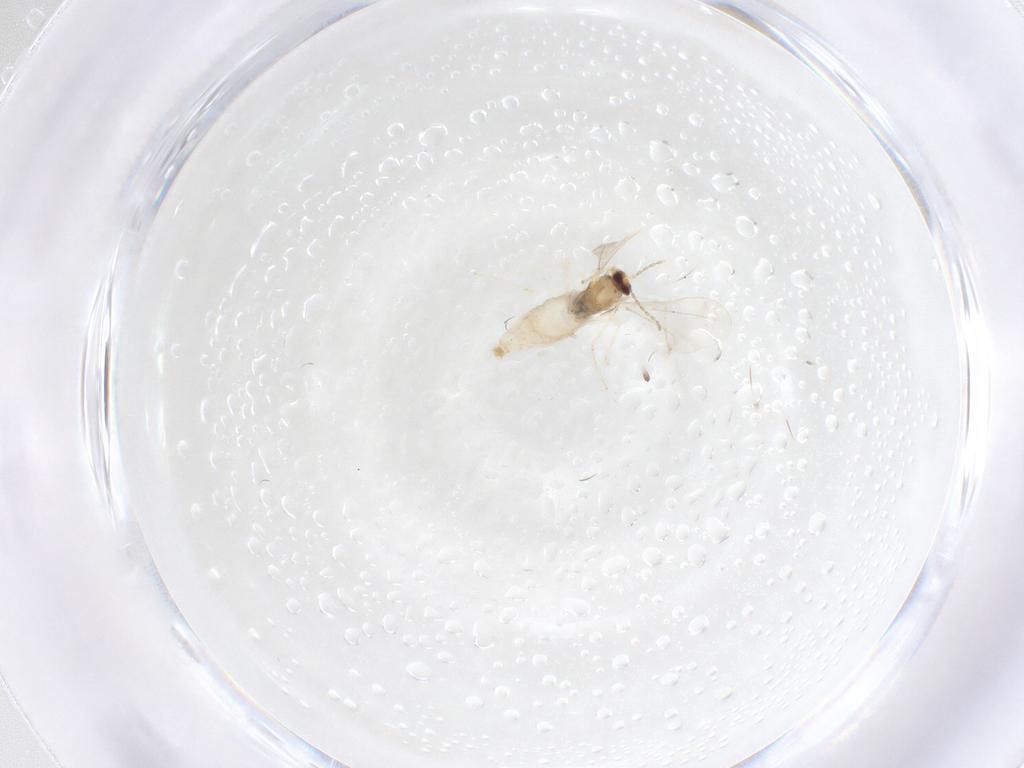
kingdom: Animalia
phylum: Arthropoda
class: Insecta
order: Diptera
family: Cecidomyiidae
